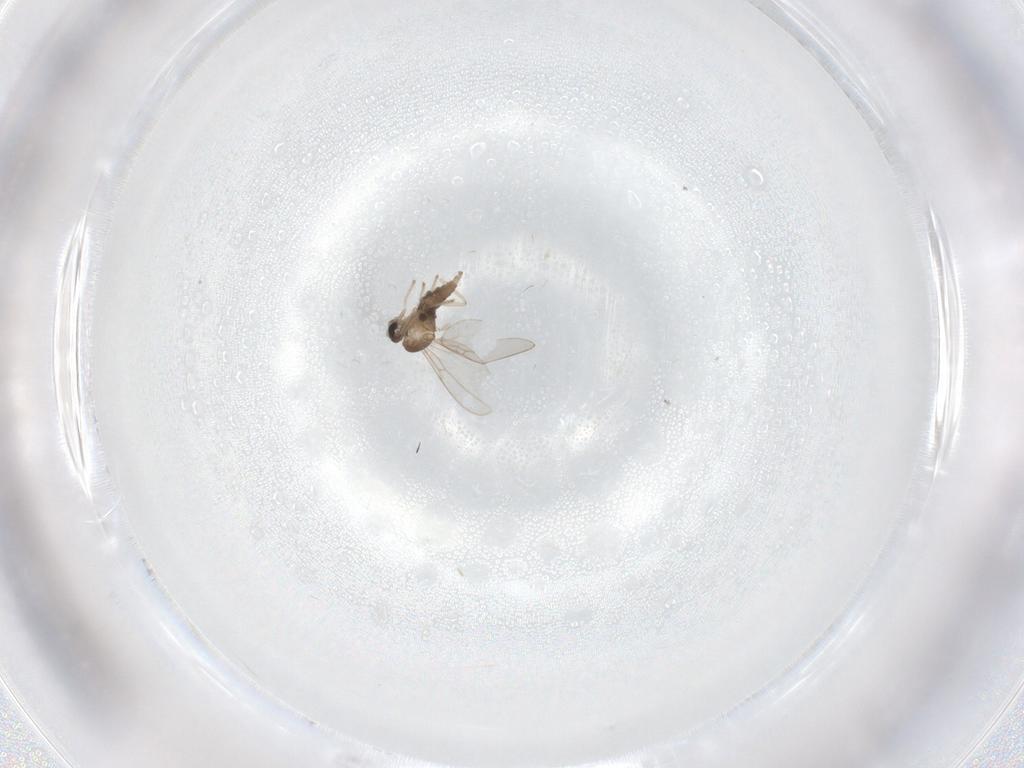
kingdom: Animalia
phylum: Arthropoda
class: Insecta
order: Diptera
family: Cecidomyiidae
